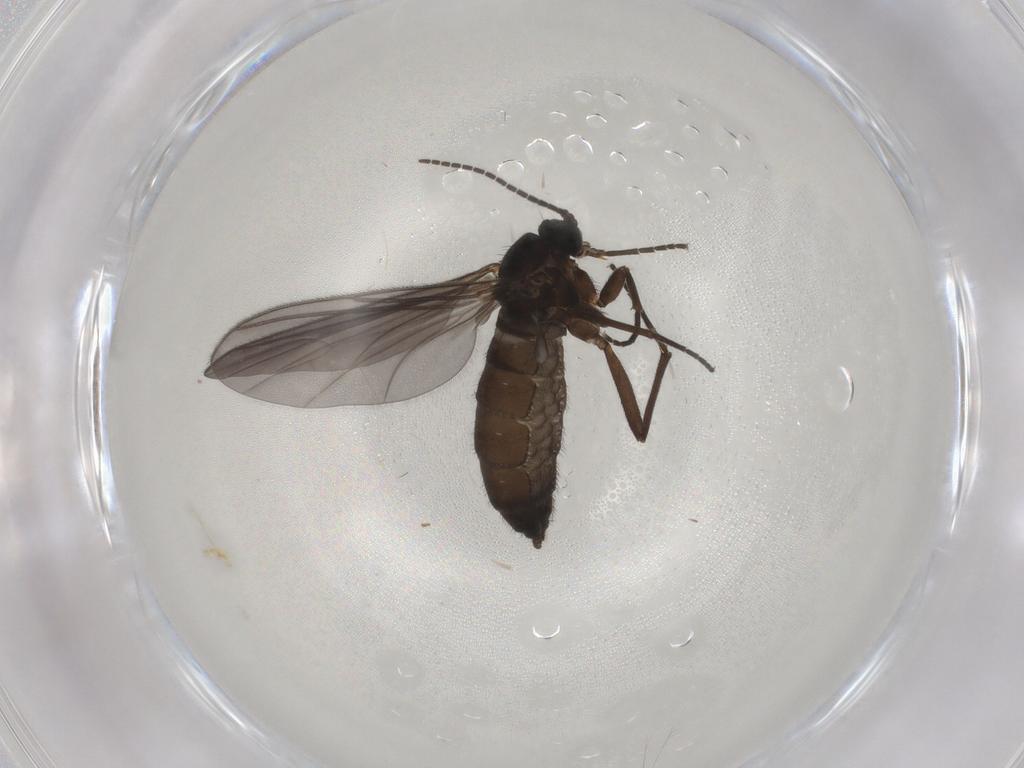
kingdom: Animalia
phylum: Arthropoda
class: Insecta
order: Diptera
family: Sciaridae
